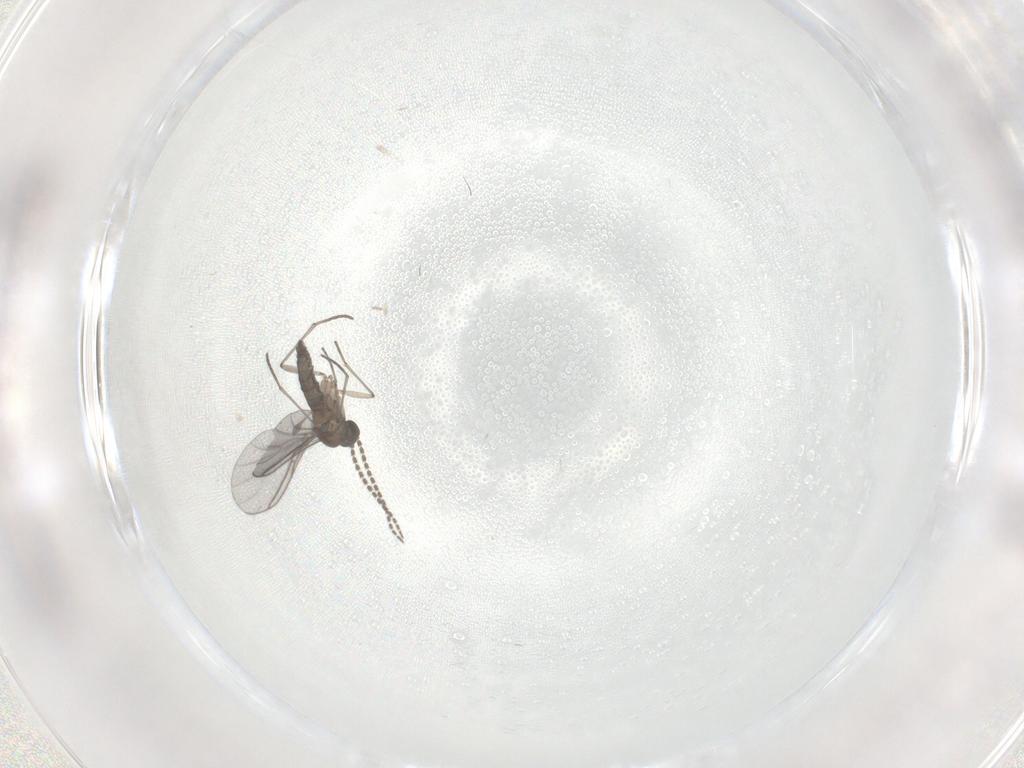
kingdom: Animalia
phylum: Arthropoda
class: Insecta
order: Diptera
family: Sciaridae
